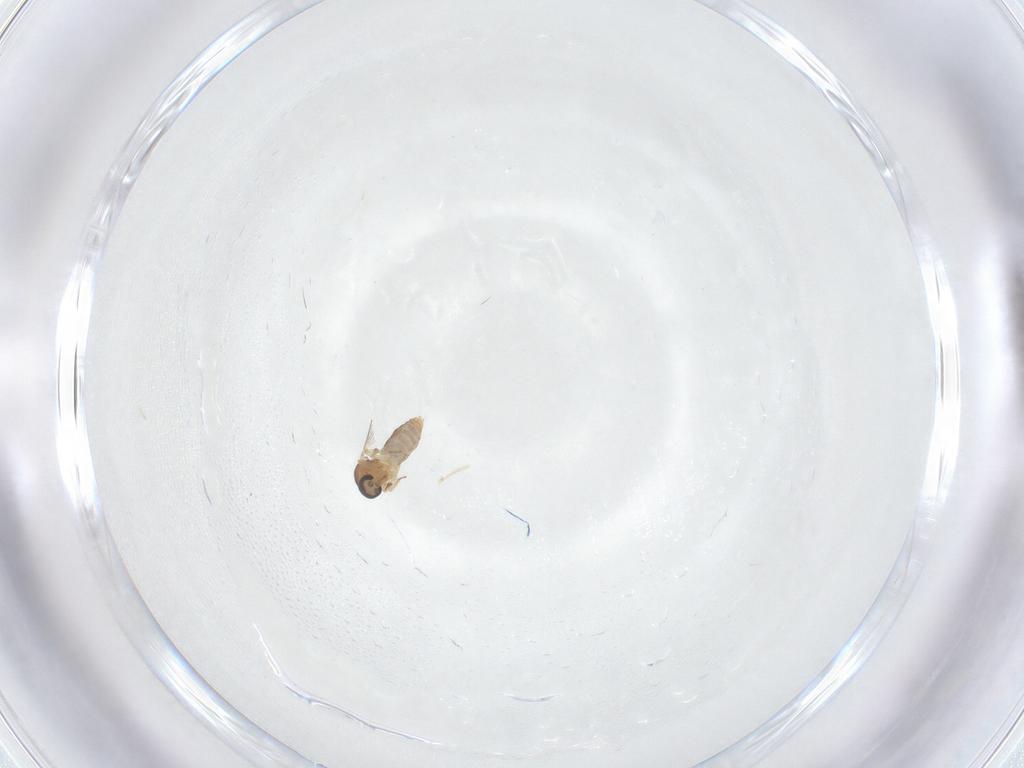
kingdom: Animalia
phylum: Arthropoda
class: Insecta
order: Diptera
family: Ceratopogonidae
